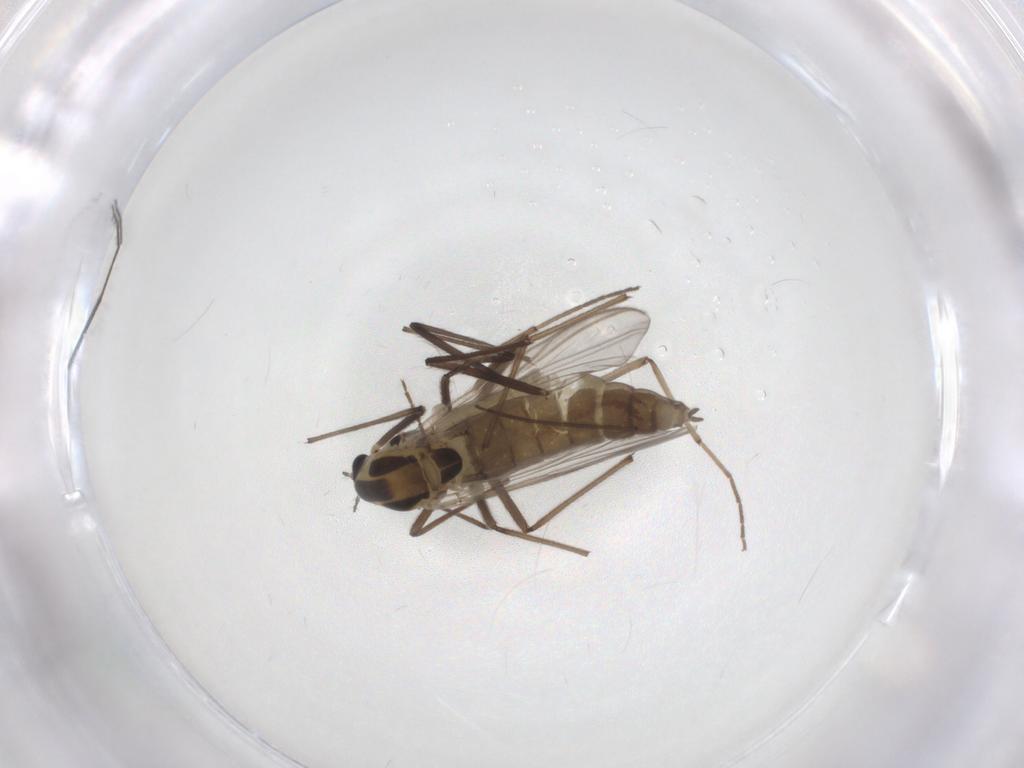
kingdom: Animalia
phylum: Arthropoda
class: Insecta
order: Diptera
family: Chironomidae
